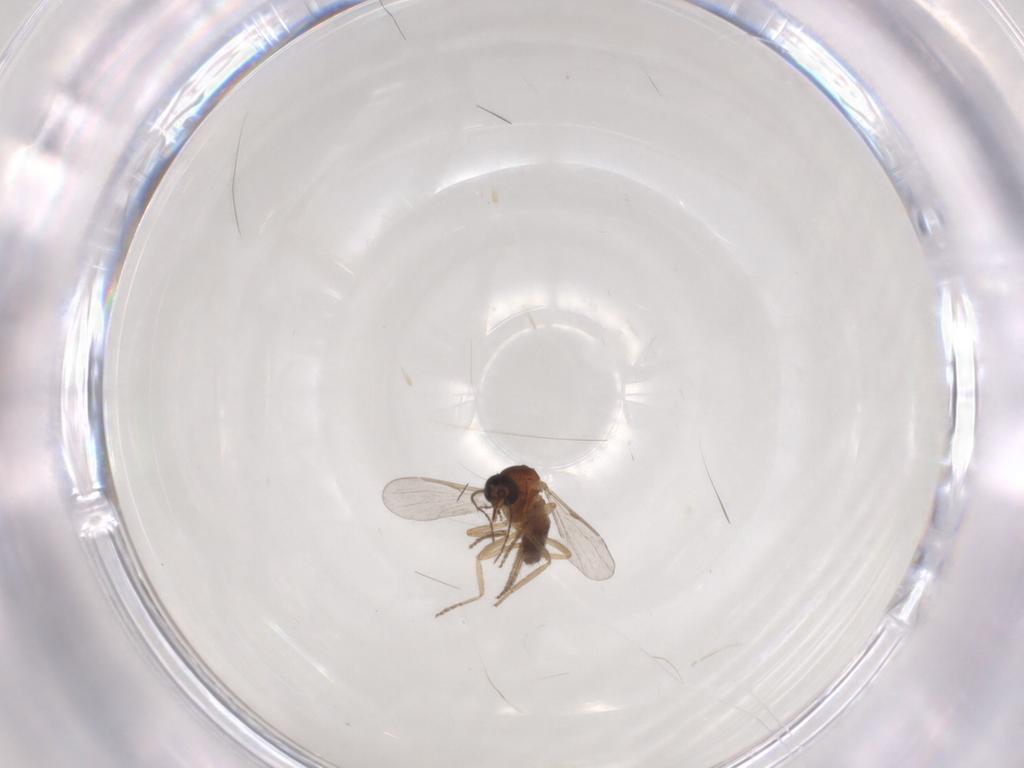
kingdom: Animalia
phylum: Arthropoda
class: Insecta
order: Diptera
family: Ceratopogonidae
